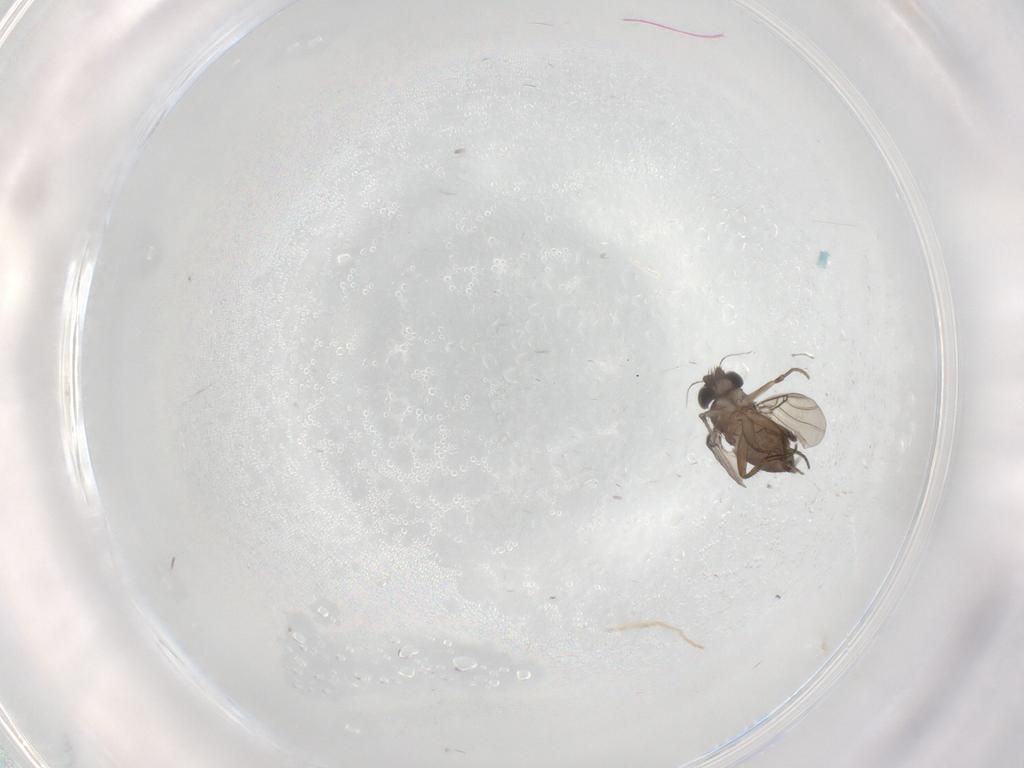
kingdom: Animalia
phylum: Arthropoda
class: Insecta
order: Diptera
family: Phoridae
